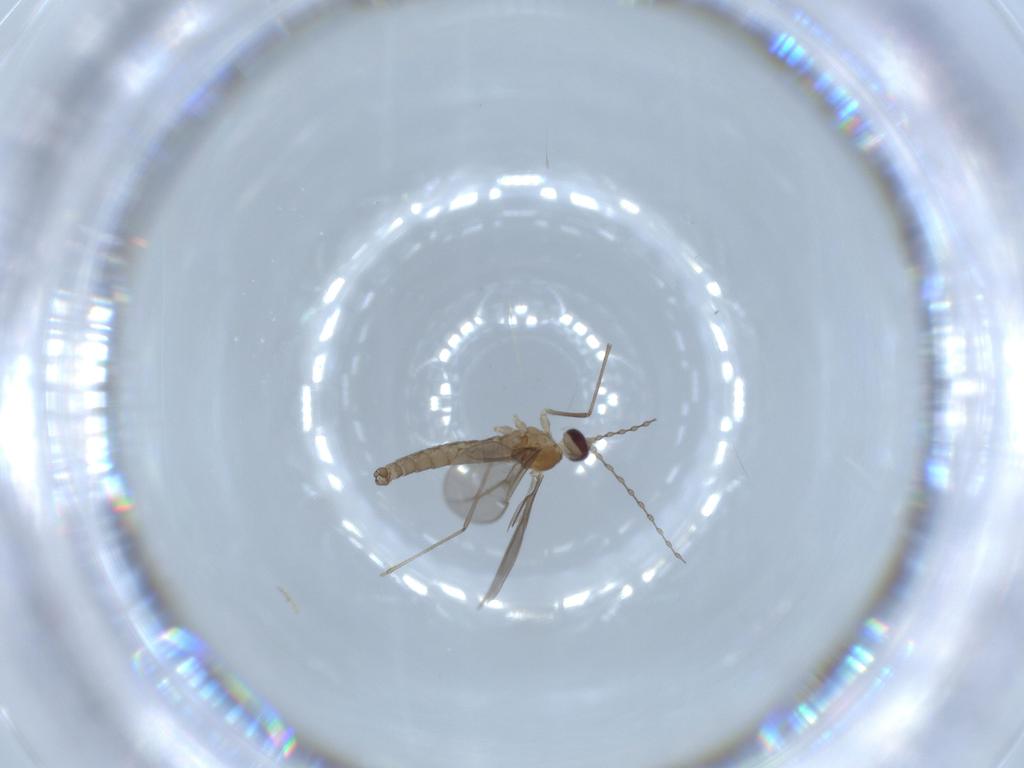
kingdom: Animalia
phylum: Arthropoda
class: Insecta
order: Diptera
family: Cecidomyiidae
